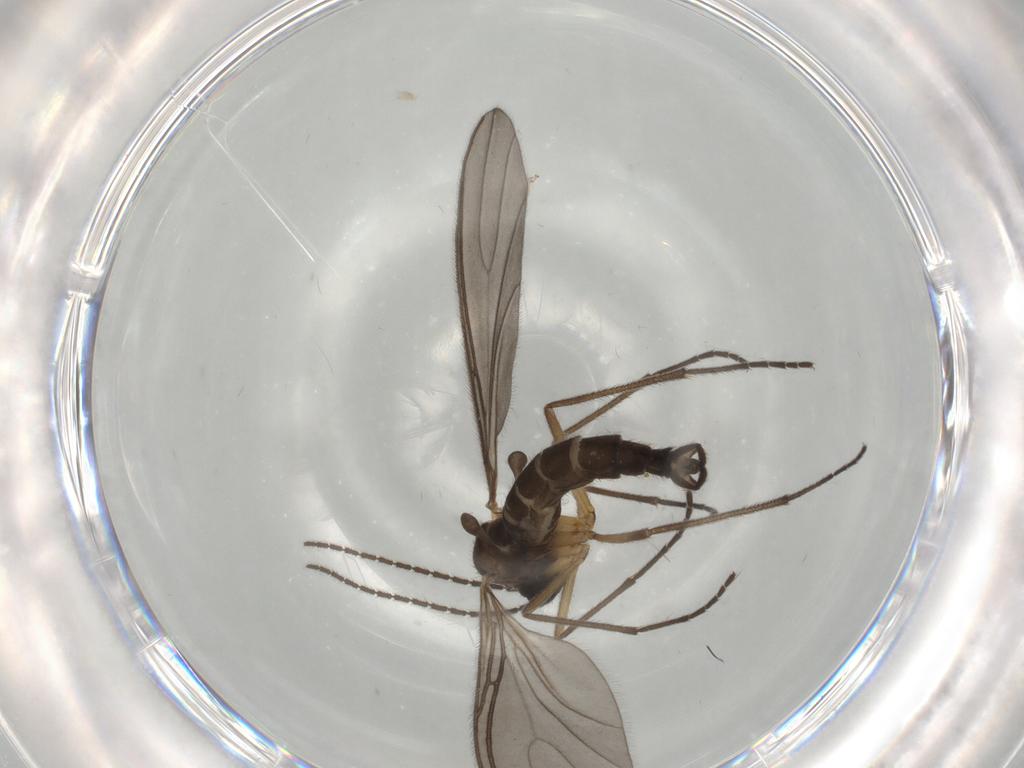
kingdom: Animalia
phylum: Arthropoda
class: Insecta
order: Diptera
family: Sciaridae
